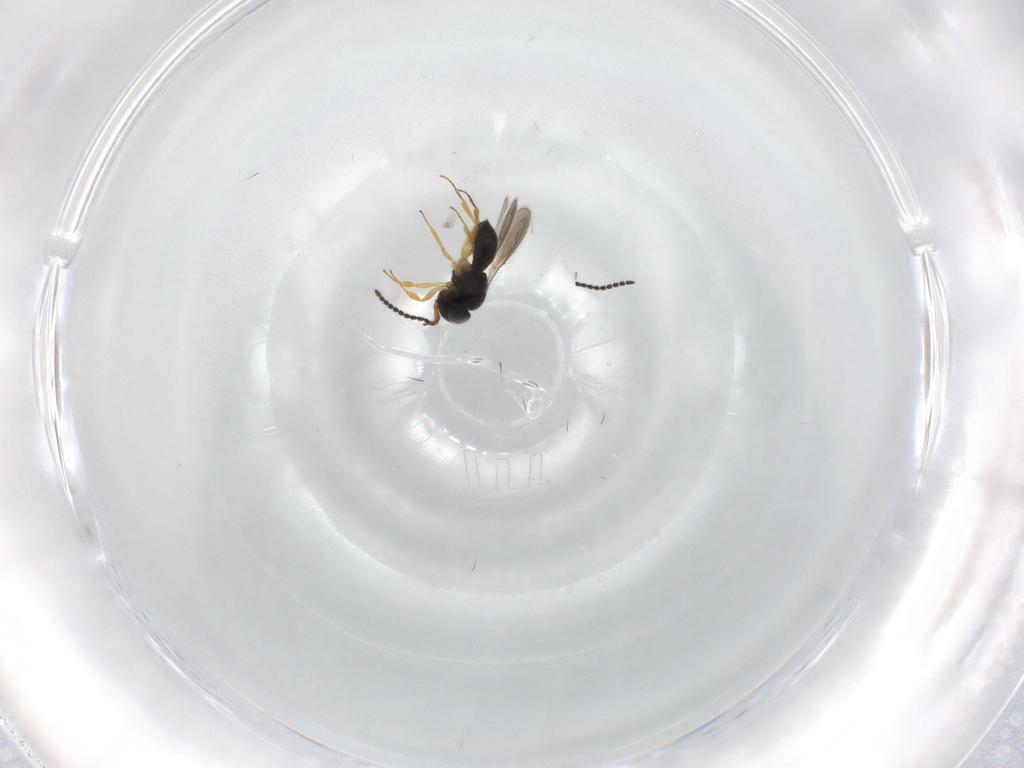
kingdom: Animalia
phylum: Arthropoda
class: Insecta
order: Hymenoptera
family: Scelionidae
